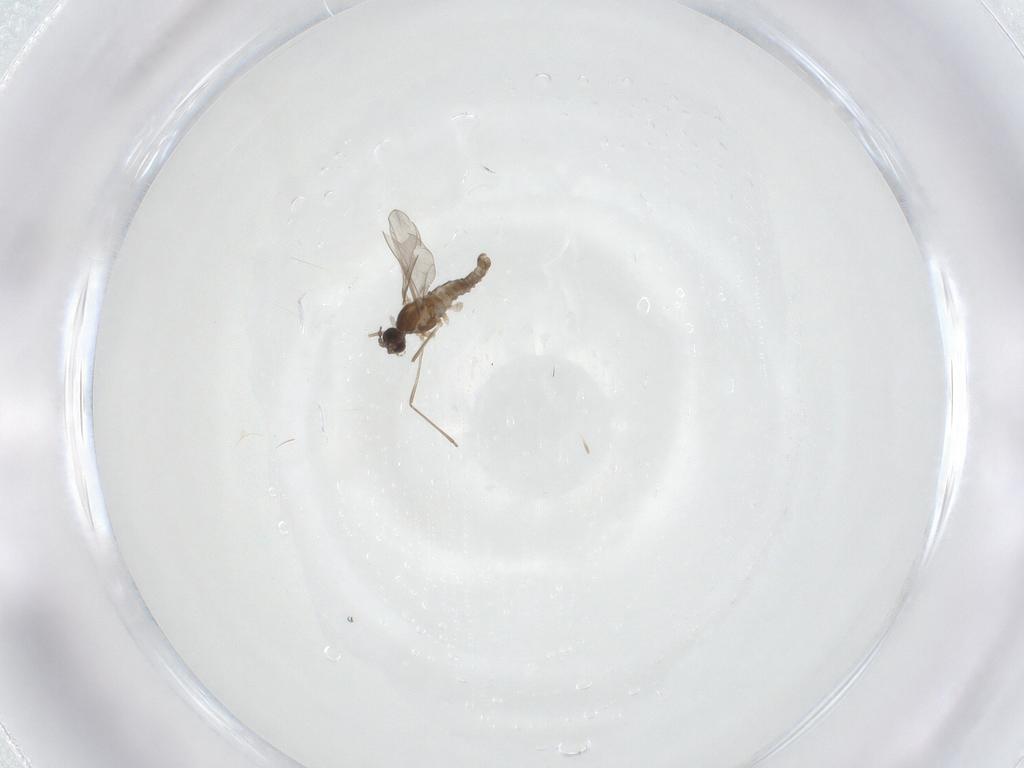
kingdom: Animalia
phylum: Arthropoda
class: Insecta
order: Diptera
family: Cecidomyiidae
